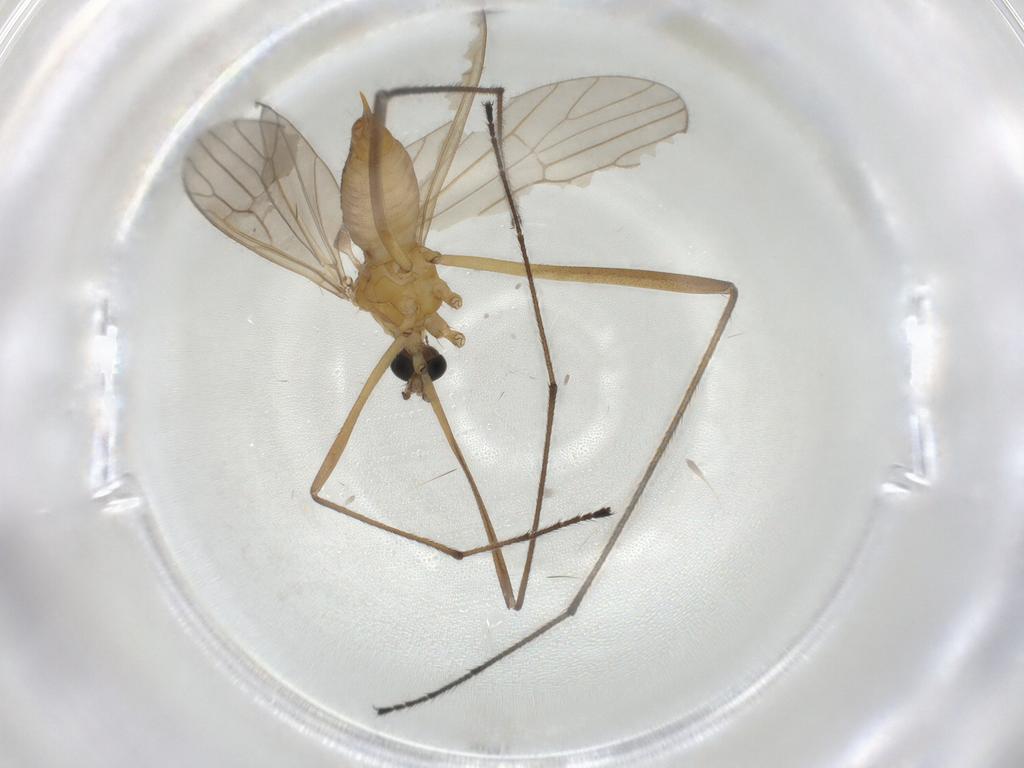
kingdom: Animalia
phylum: Arthropoda
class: Insecta
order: Diptera
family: Limoniidae
